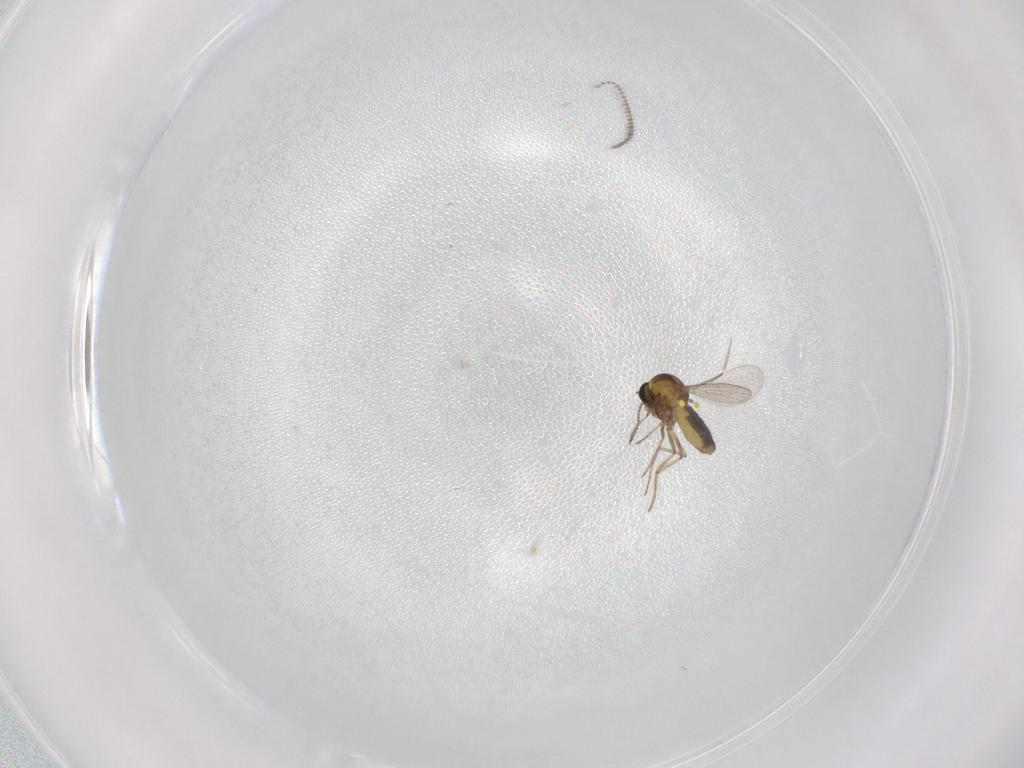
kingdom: Animalia
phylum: Arthropoda
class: Insecta
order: Diptera
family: Ceratopogonidae
